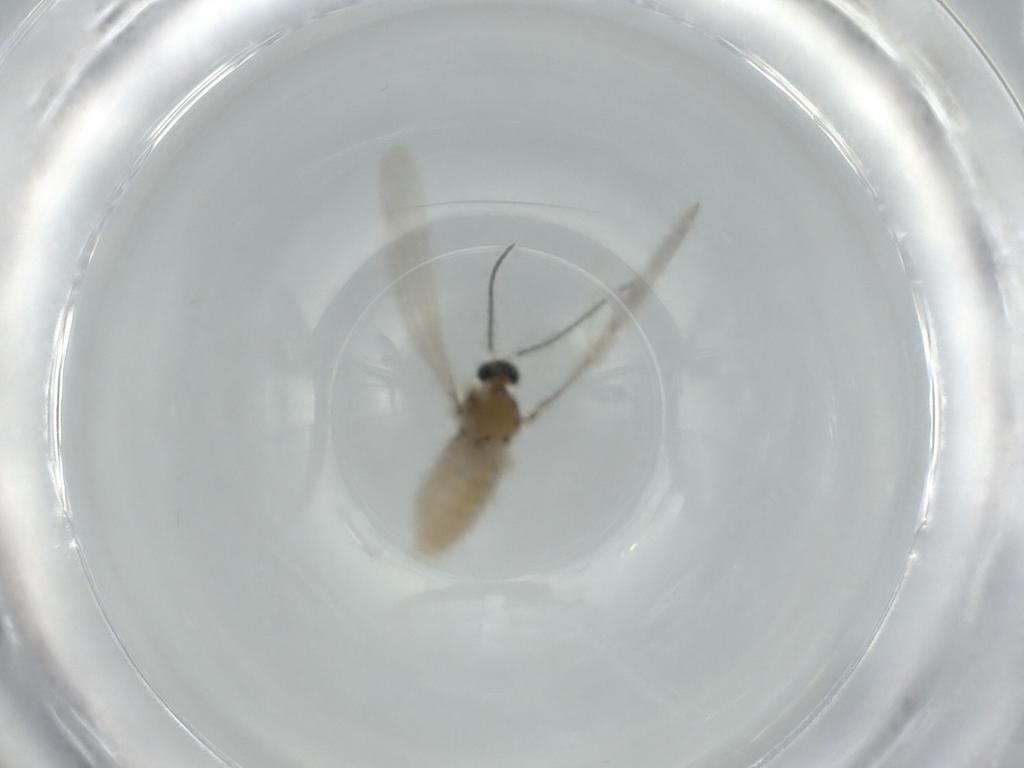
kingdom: Animalia
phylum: Arthropoda
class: Insecta
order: Diptera
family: Cecidomyiidae
